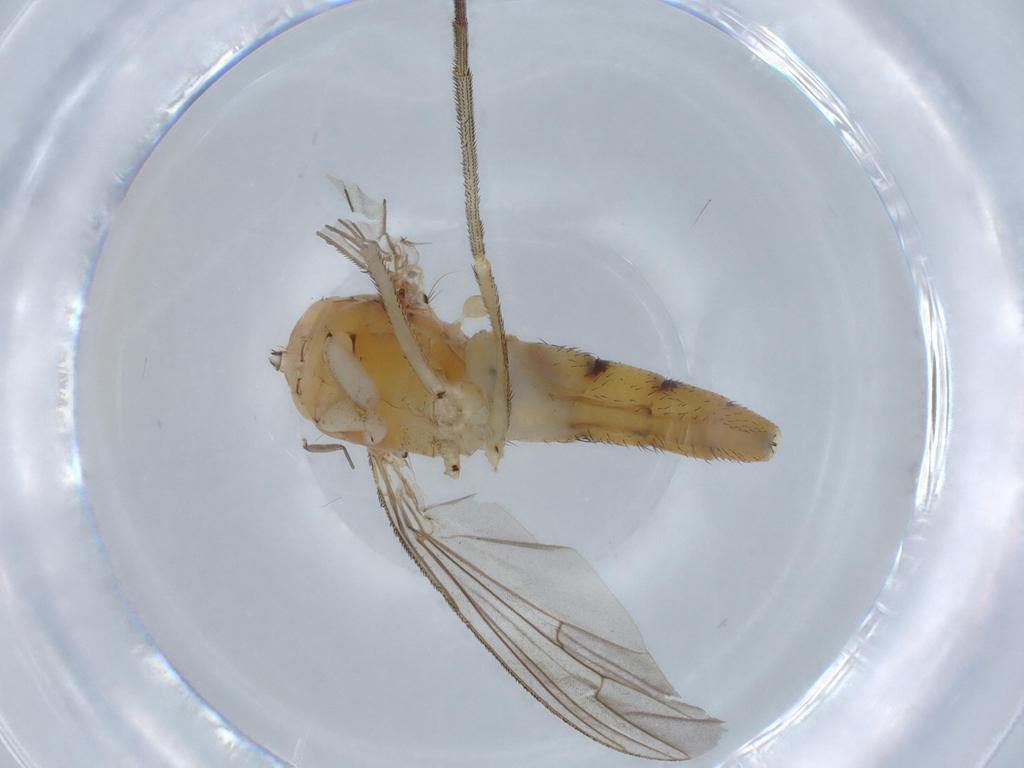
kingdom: Animalia
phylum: Arthropoda
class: Insecta
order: Diptera
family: Dolichopodidae
